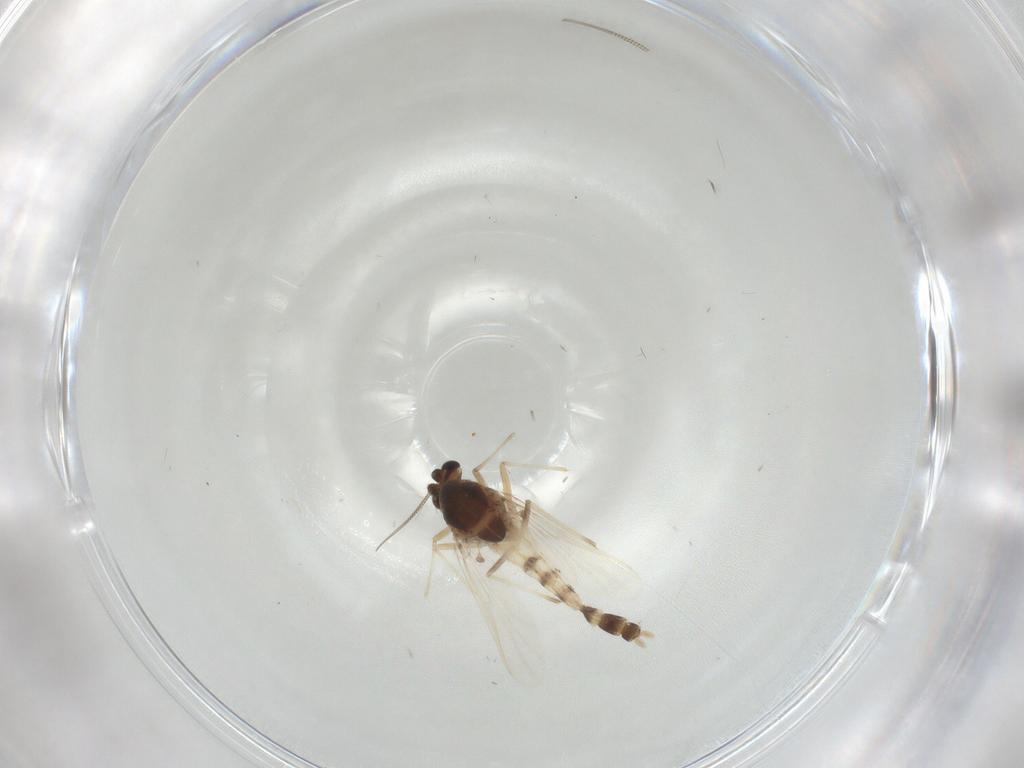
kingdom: Animalia
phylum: Arthropoda
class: Insecta
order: Diptera
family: Chironomidae
